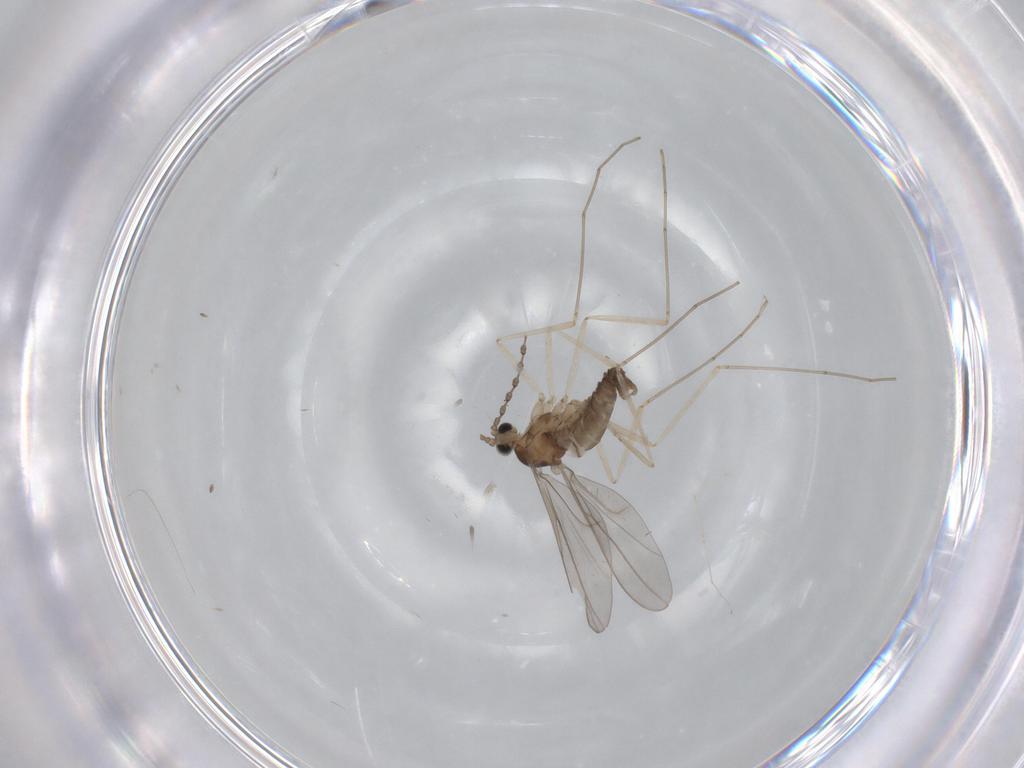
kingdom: Animalia
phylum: Arthropoda
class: Insecta
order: Diptera
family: Cecidomyiidae
